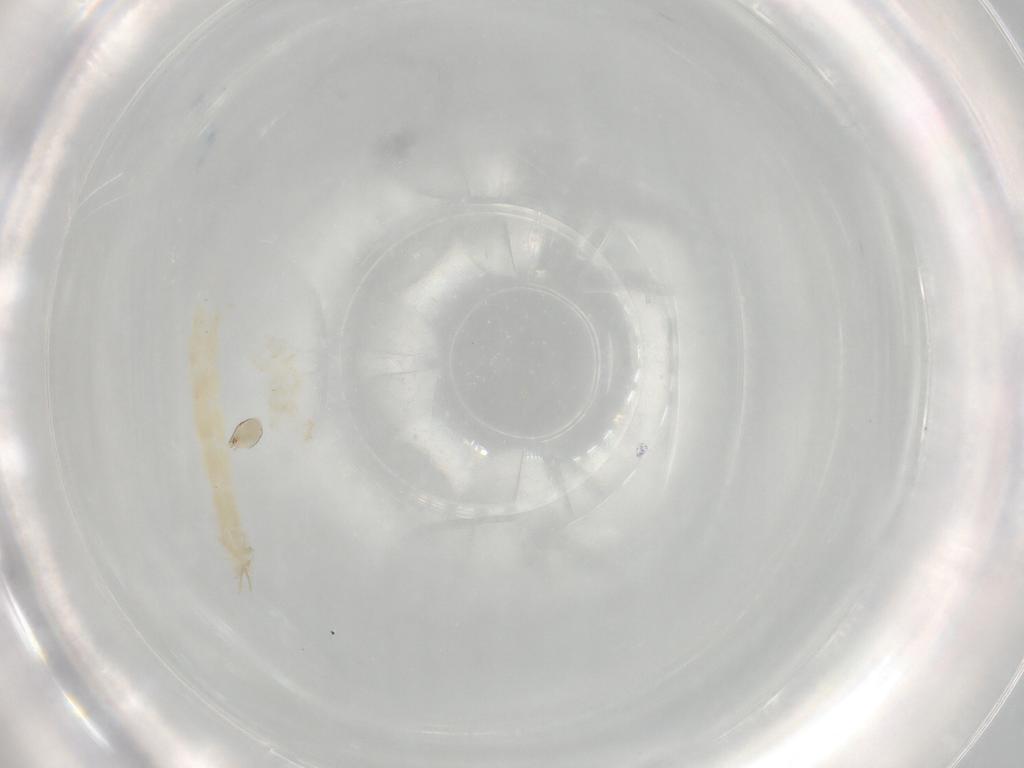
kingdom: Animalia
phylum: Arthropoda
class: Insecta
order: Diptera
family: Chironomidae
